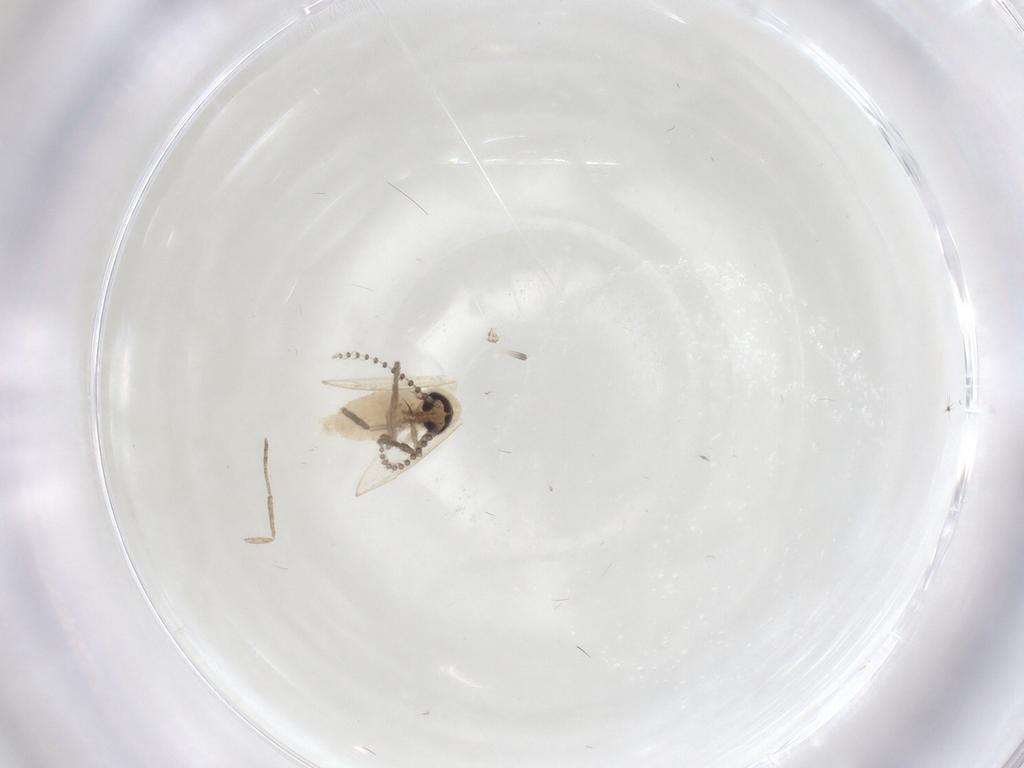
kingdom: Animalia
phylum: Arthropoda
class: Insecta
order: Diptera
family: Psychodidae
